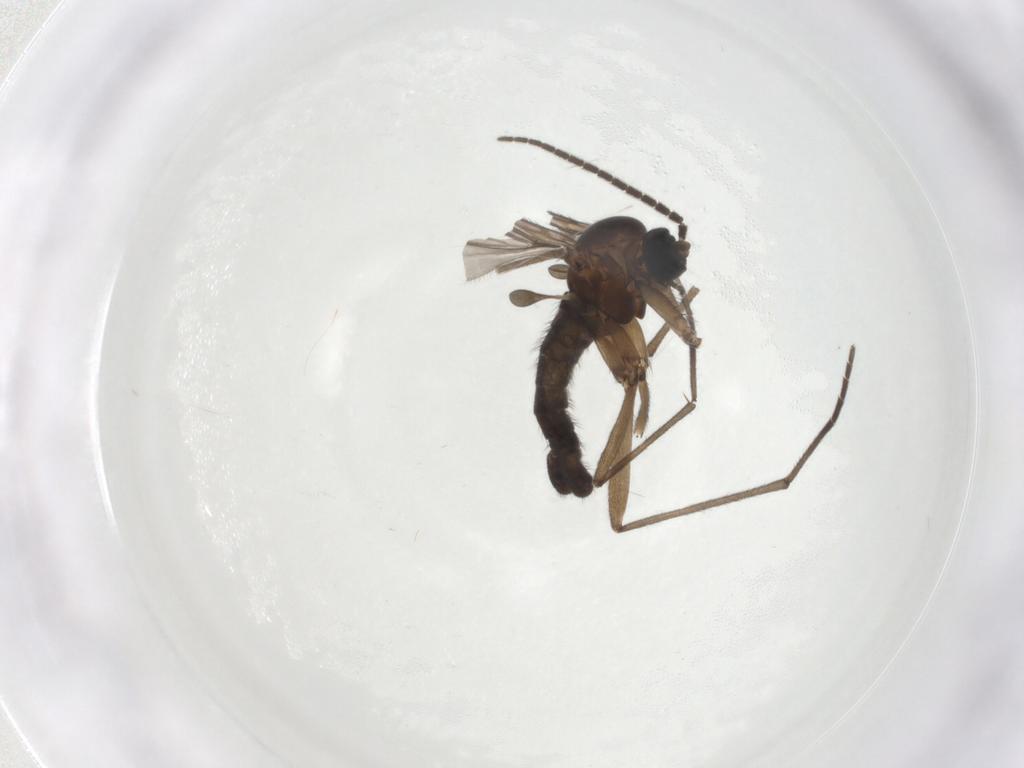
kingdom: Animalia
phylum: Arthropoda
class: Insecta
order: Diptera
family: Sciaridae
